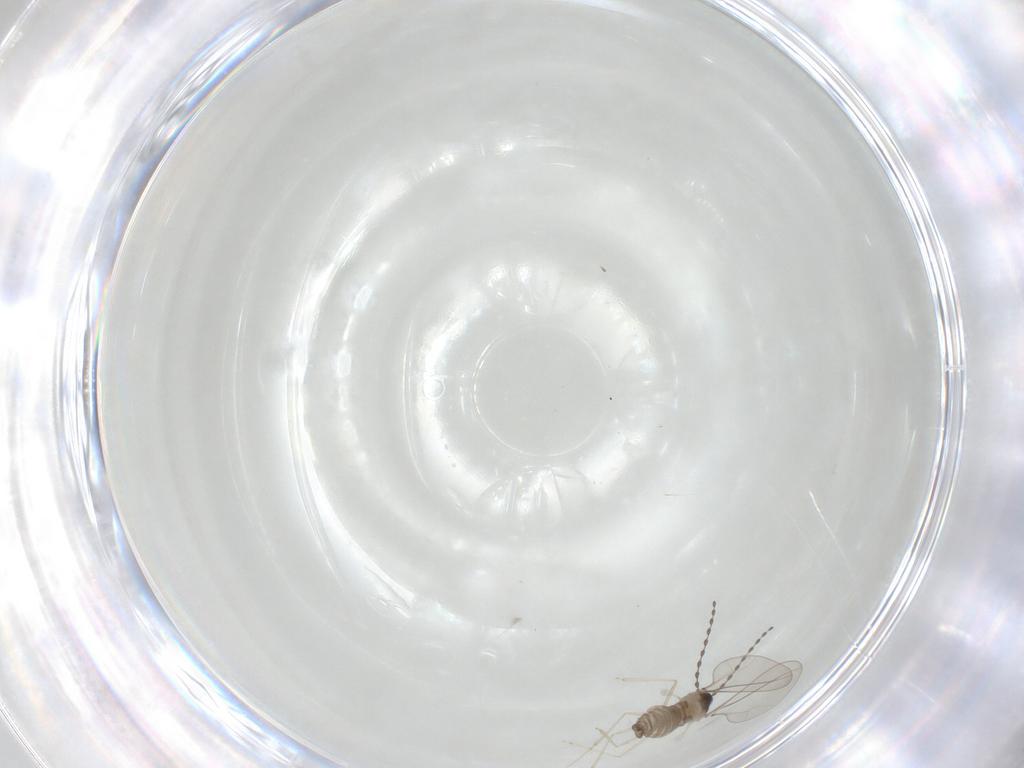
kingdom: Animalia
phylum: Arthropoda
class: Insecta
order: Diptera
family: Cecidomyiidae
